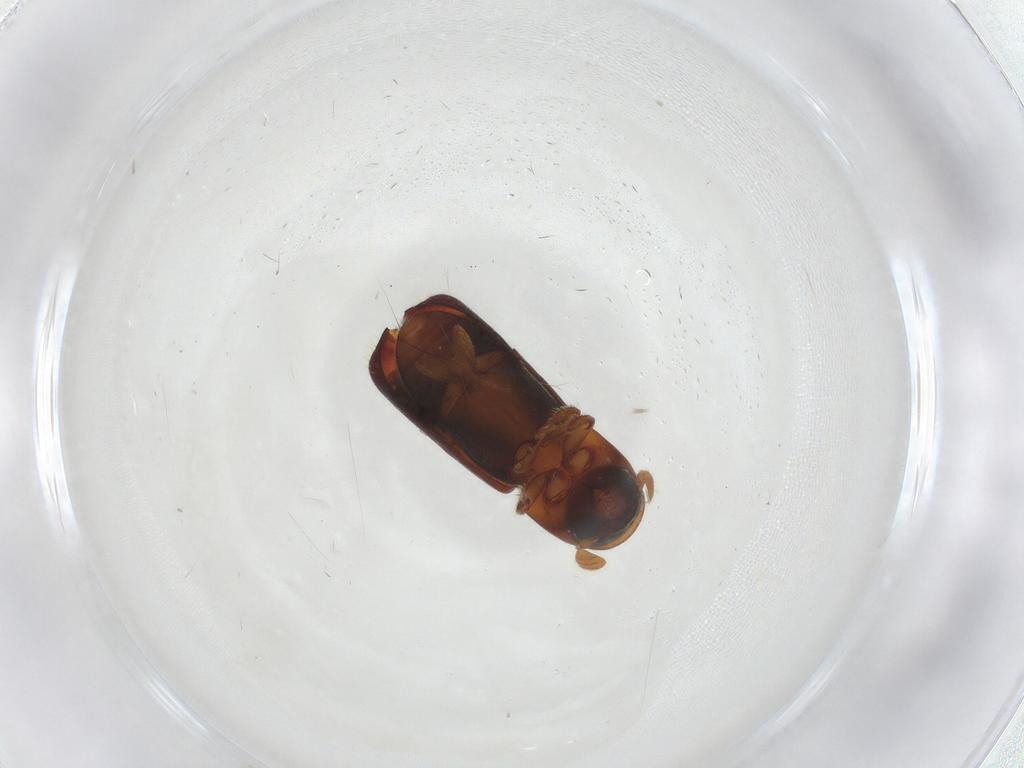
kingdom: Animalia
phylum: Arthropoda
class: Insecta
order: Coleoptera
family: Curculionidae
